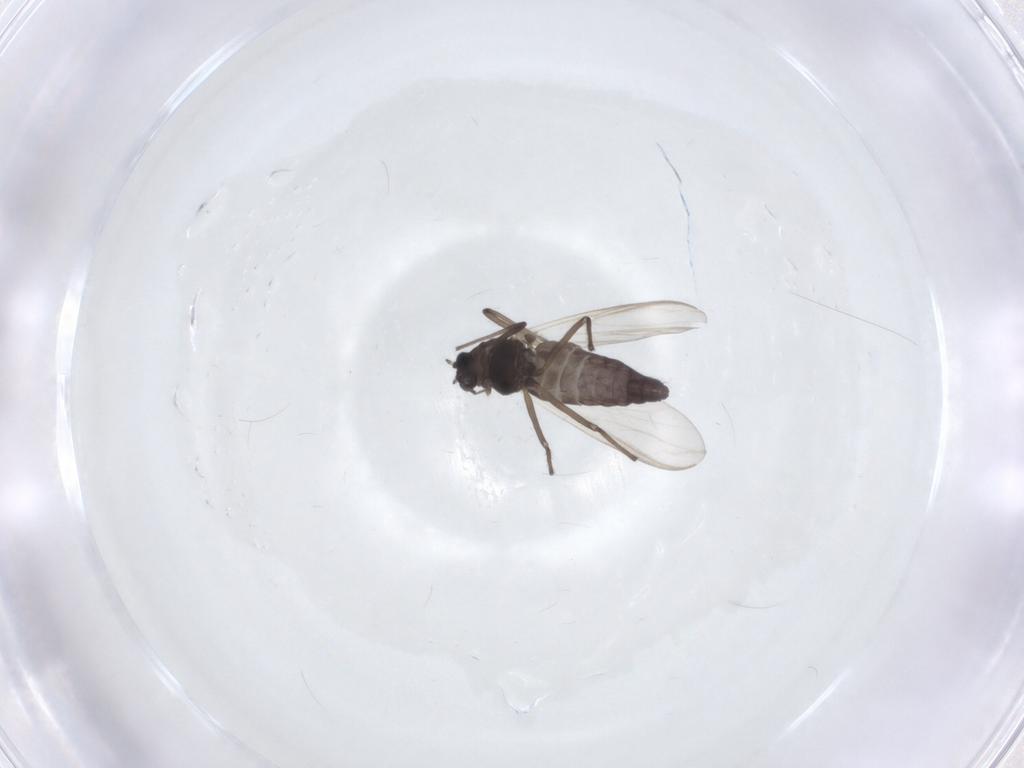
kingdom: Animalia
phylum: Arthropoda
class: Insecta
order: Diptera
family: Chironomidae
